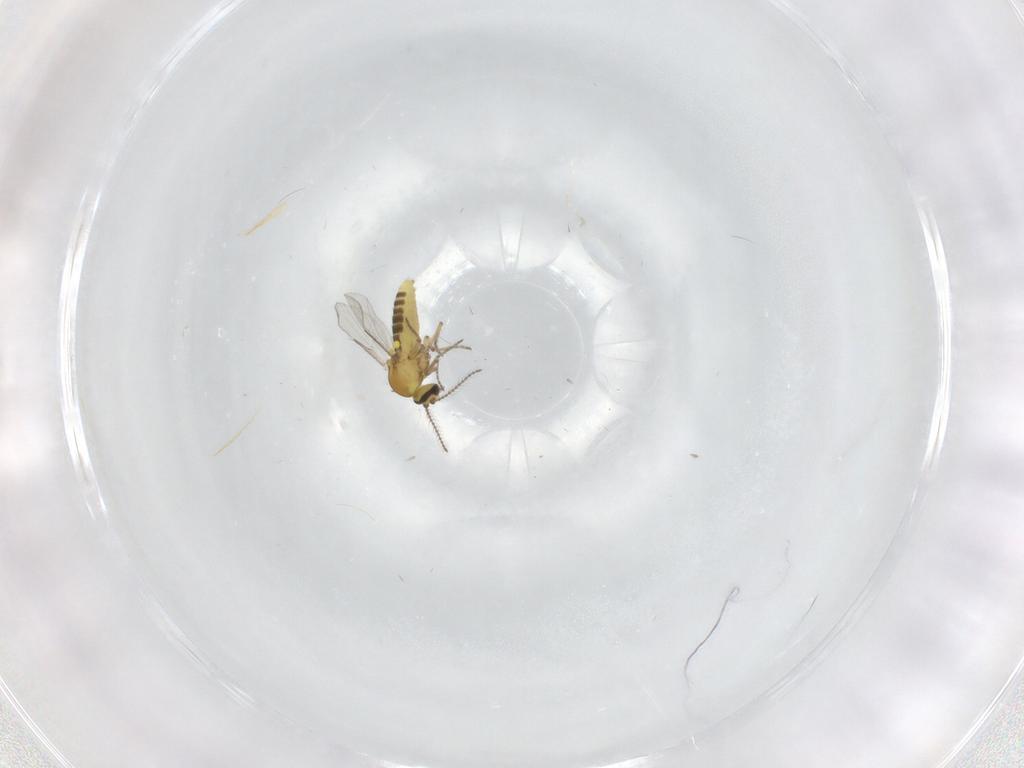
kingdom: Animalia
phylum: Arthropoda
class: Insecta
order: Diptera
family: Ceratopogonidae
